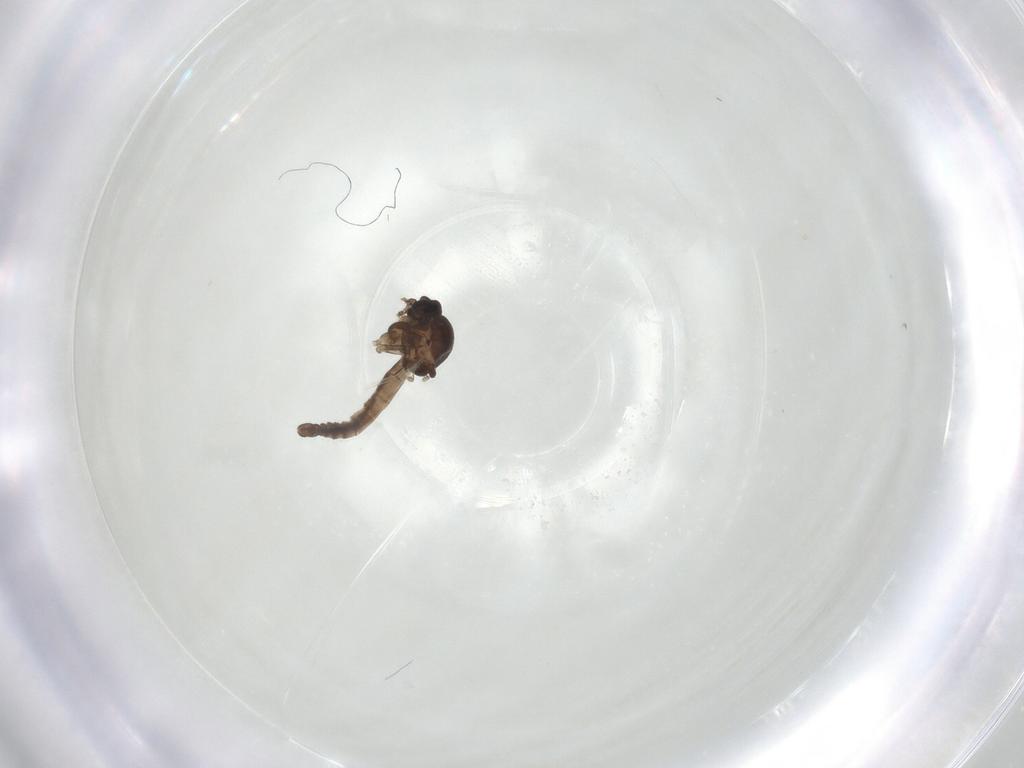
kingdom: Animalia
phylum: Arthropoda
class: Insecta
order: Diptera
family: Ceratopogonidae
